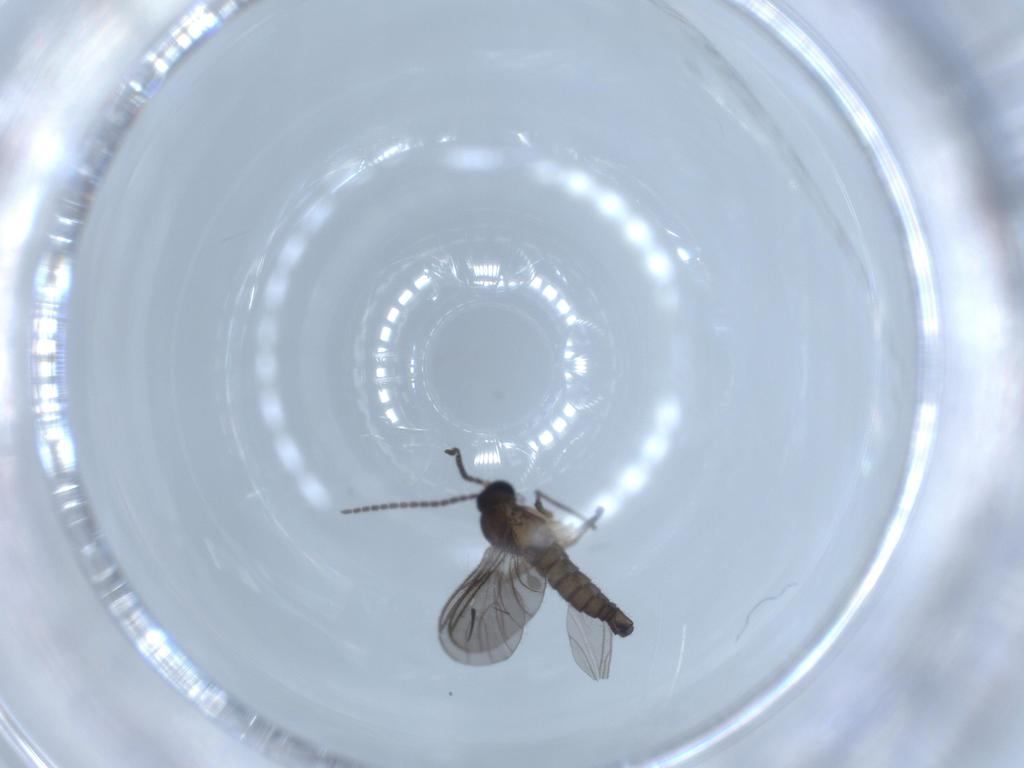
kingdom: Animalia
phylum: Arthropoda
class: Insecta
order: Diptera
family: Sciaridae
